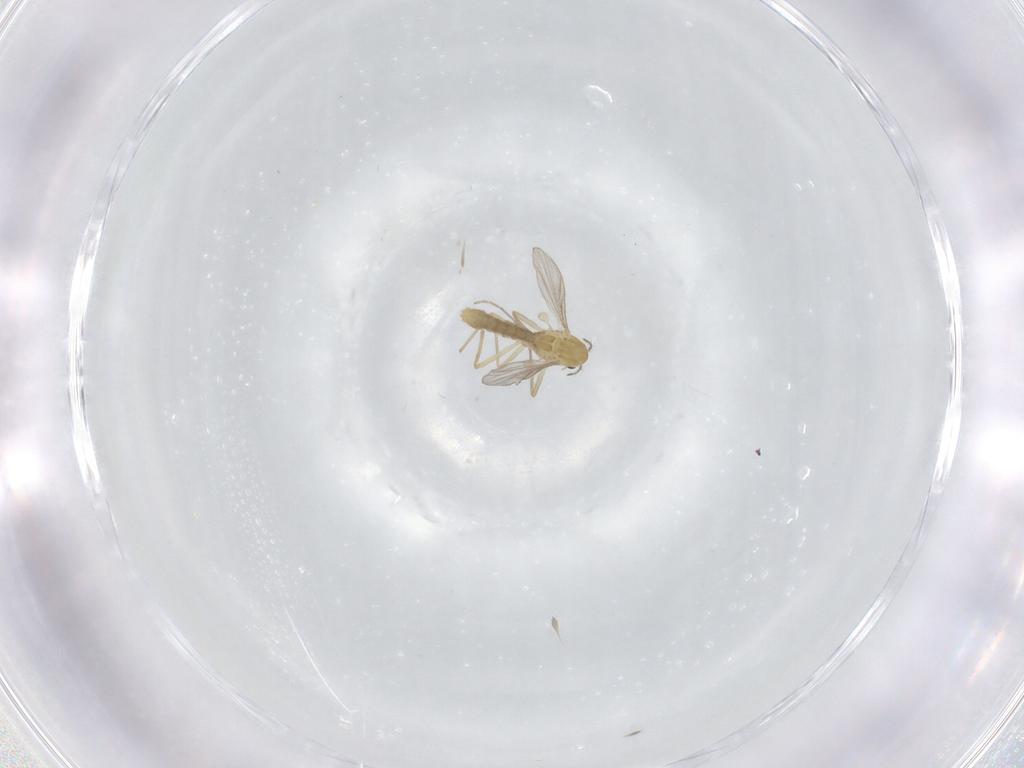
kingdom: Animalia
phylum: Arthropoda
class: Insecta
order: Diptera
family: Chironomidae
